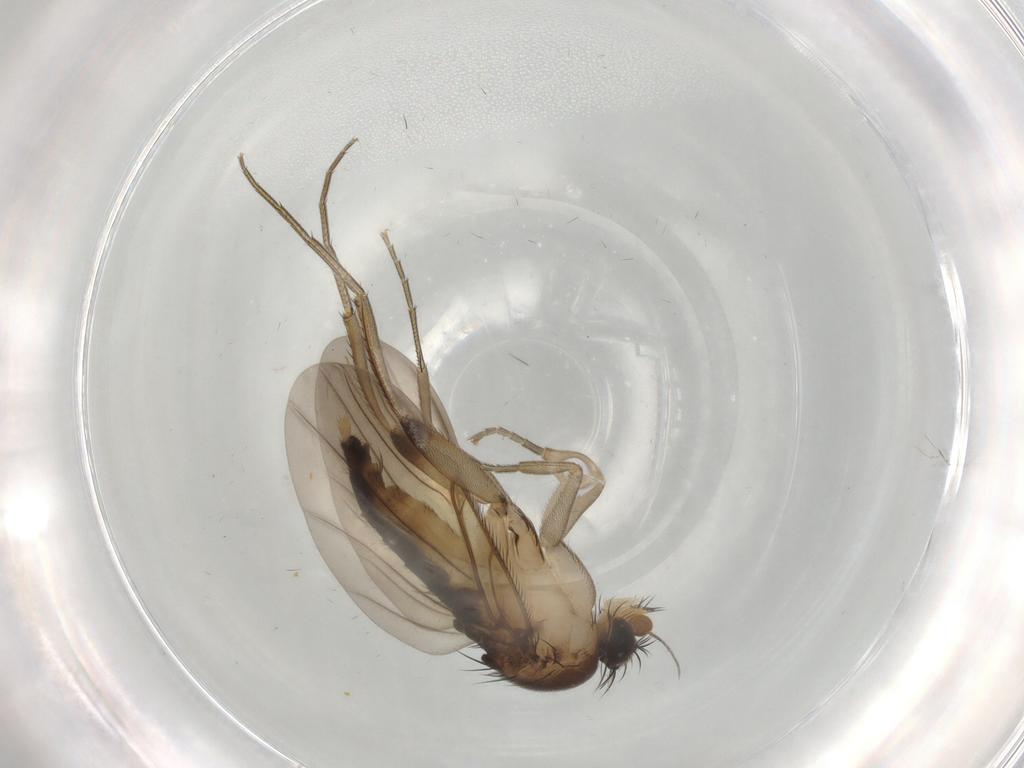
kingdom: Animalia
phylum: Arthropoda
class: Insecta
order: Diptera
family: Phoridae
